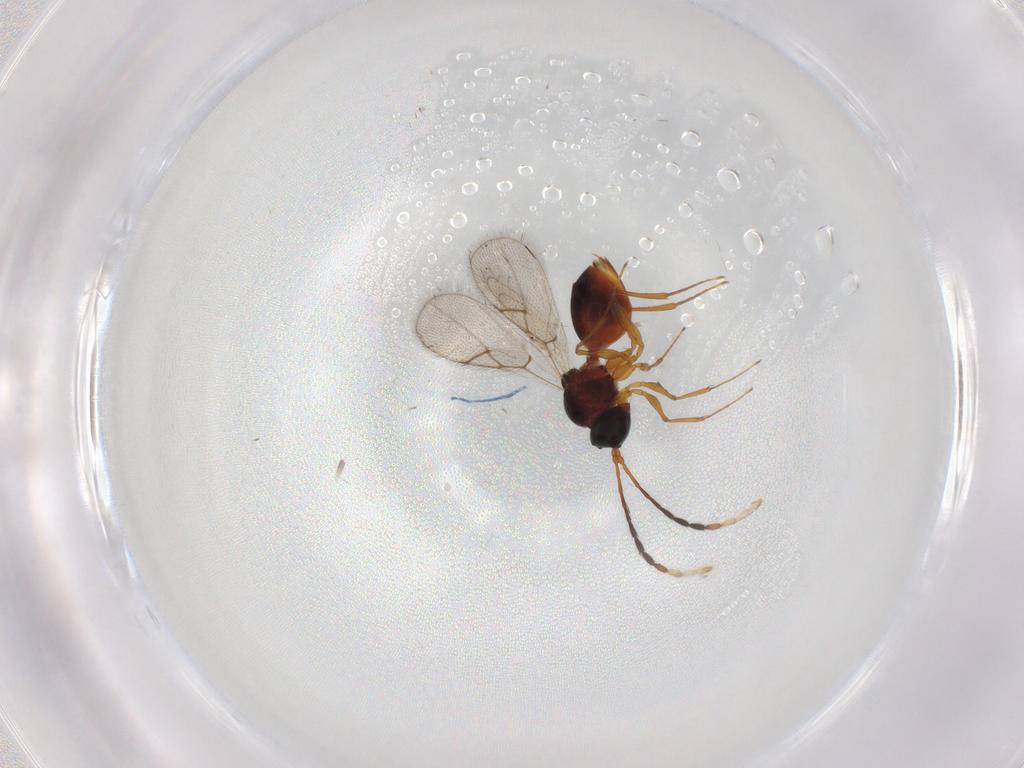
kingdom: Animalia
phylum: Arthropoda
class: Insecta
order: Hymenoptera
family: Figitidae
